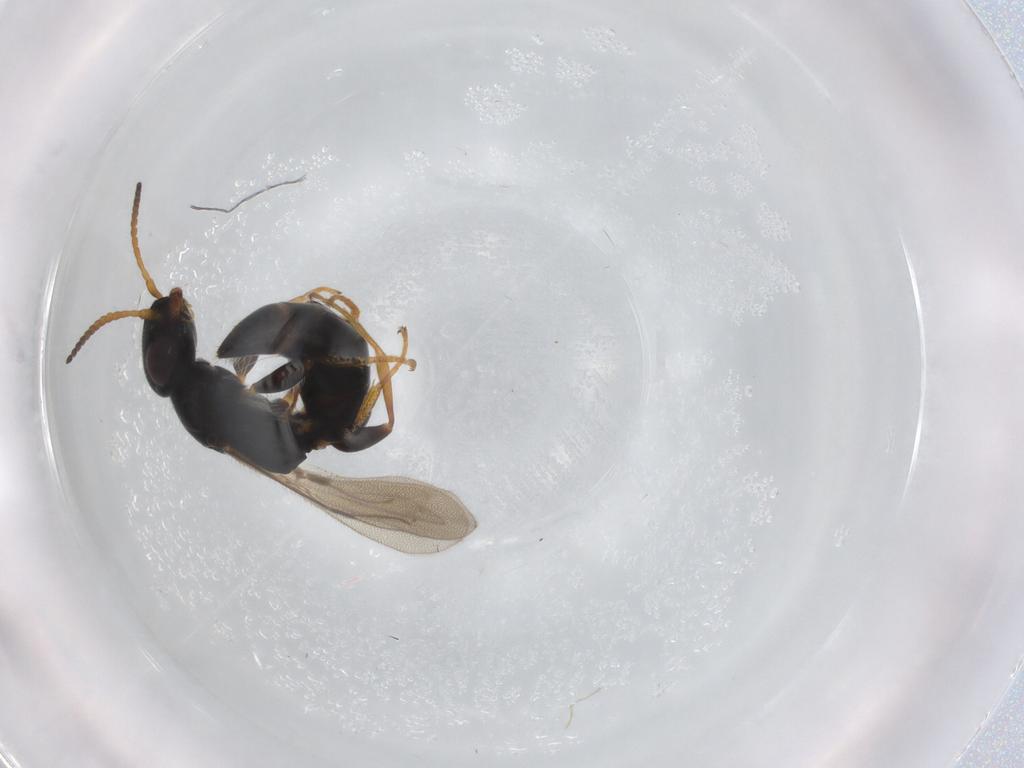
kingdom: Animalia
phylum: Arthropoda
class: Insecta
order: Hymenoptera
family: Bethylidae
